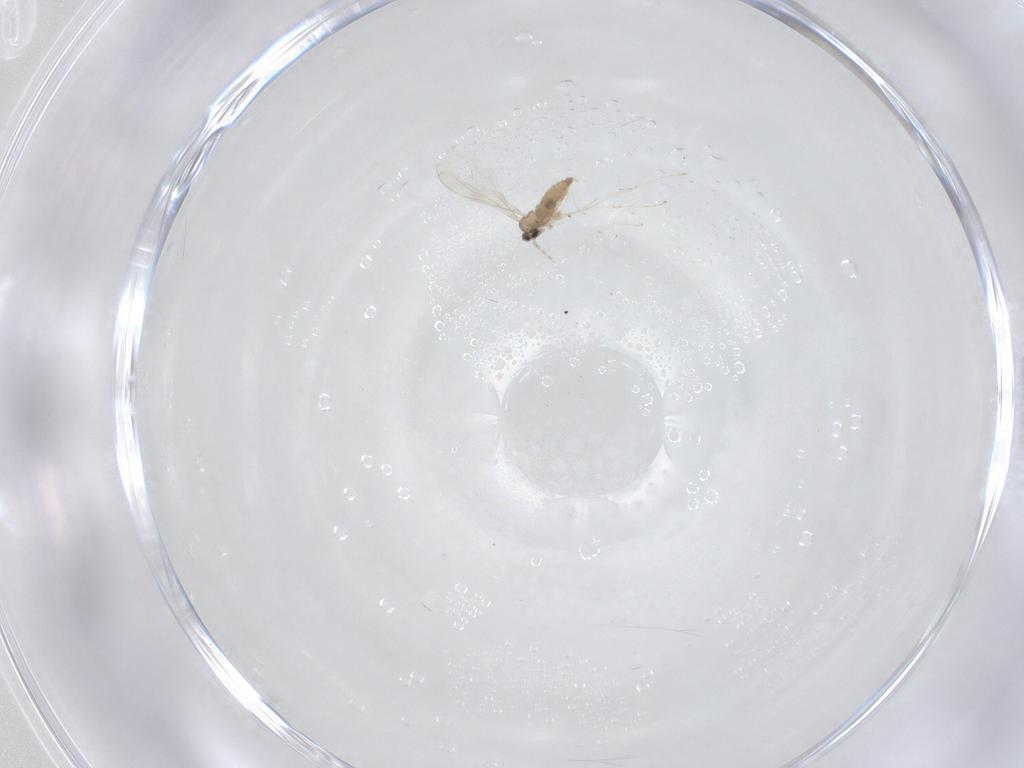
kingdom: Animalia
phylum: Arthropoda
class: Insecta
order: Diptera
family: Cecidomyiidae
